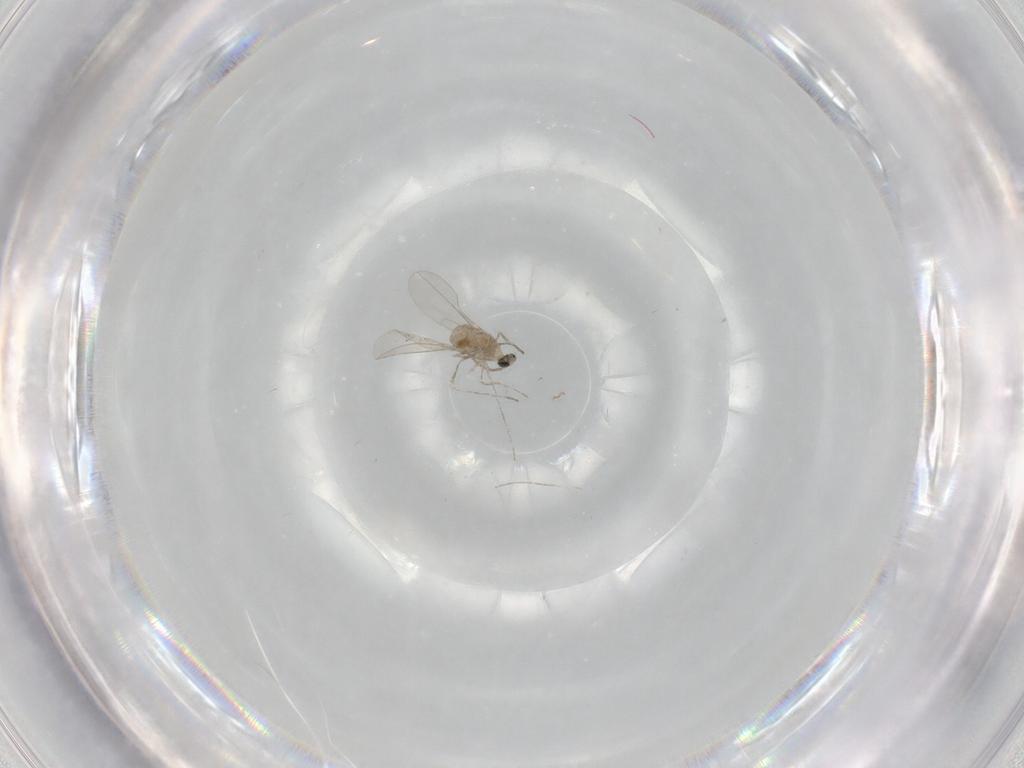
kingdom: Animalia
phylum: Arthropoda
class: Insecta
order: Diptera
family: Cecidomyiidae
